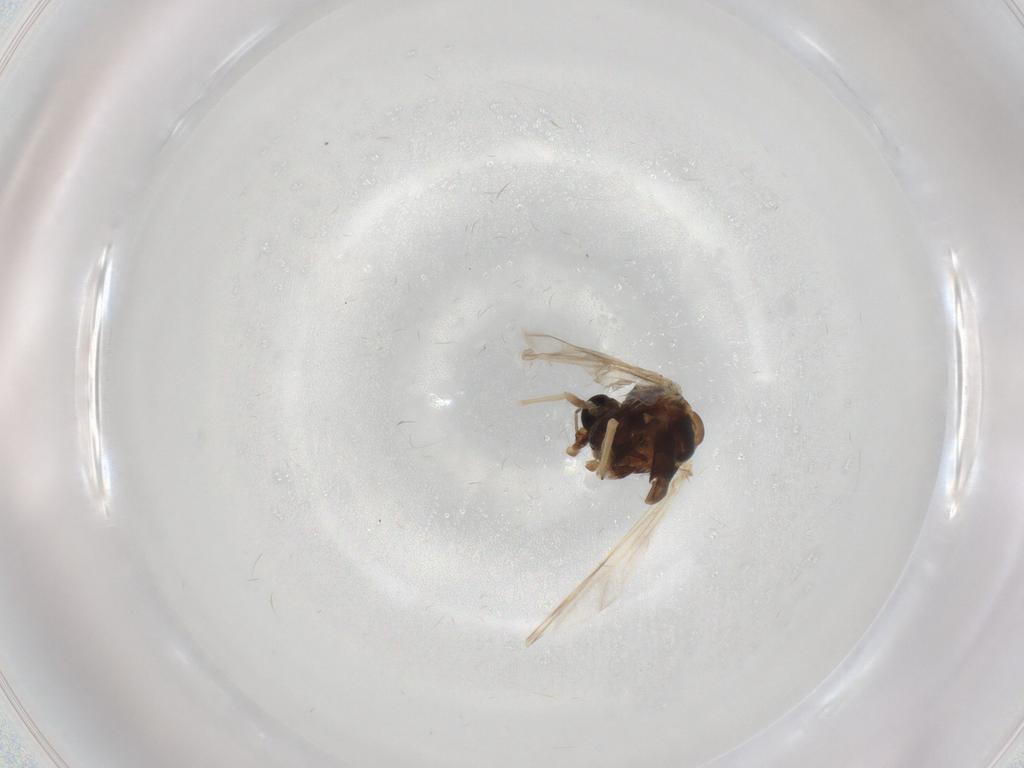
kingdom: Animalia
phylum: Arthropoda
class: Insecta
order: Diptera
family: Chironomidae
